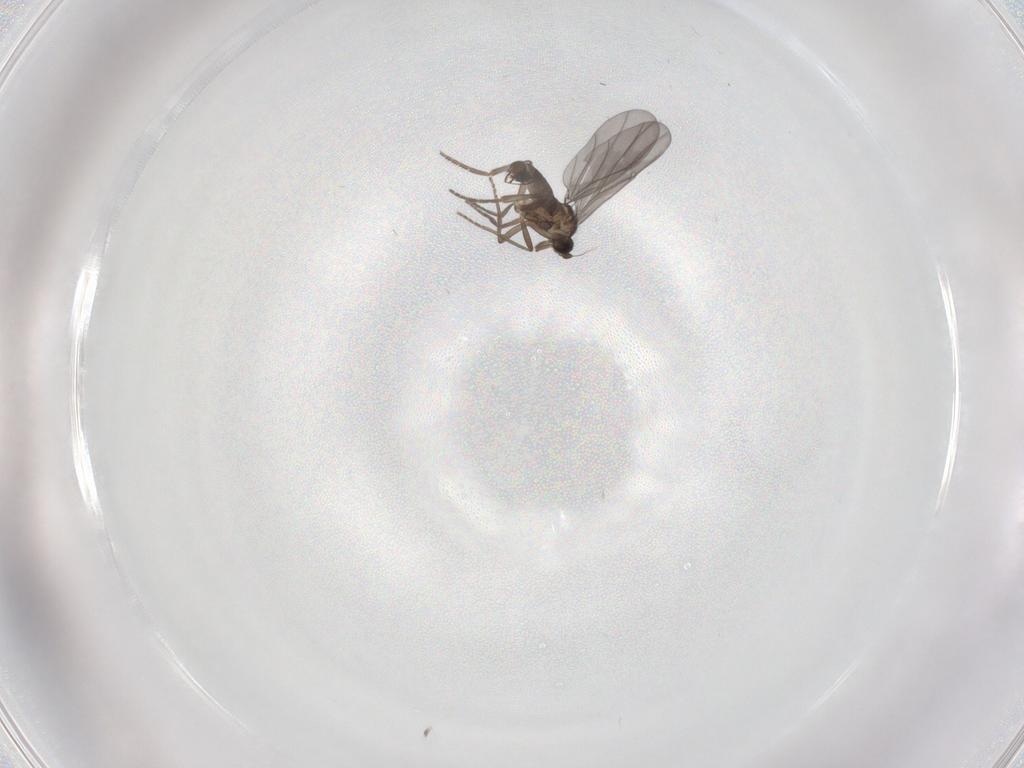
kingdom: Animalia
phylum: Arthropoda
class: Insecta
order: Diptera
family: Phoridae
